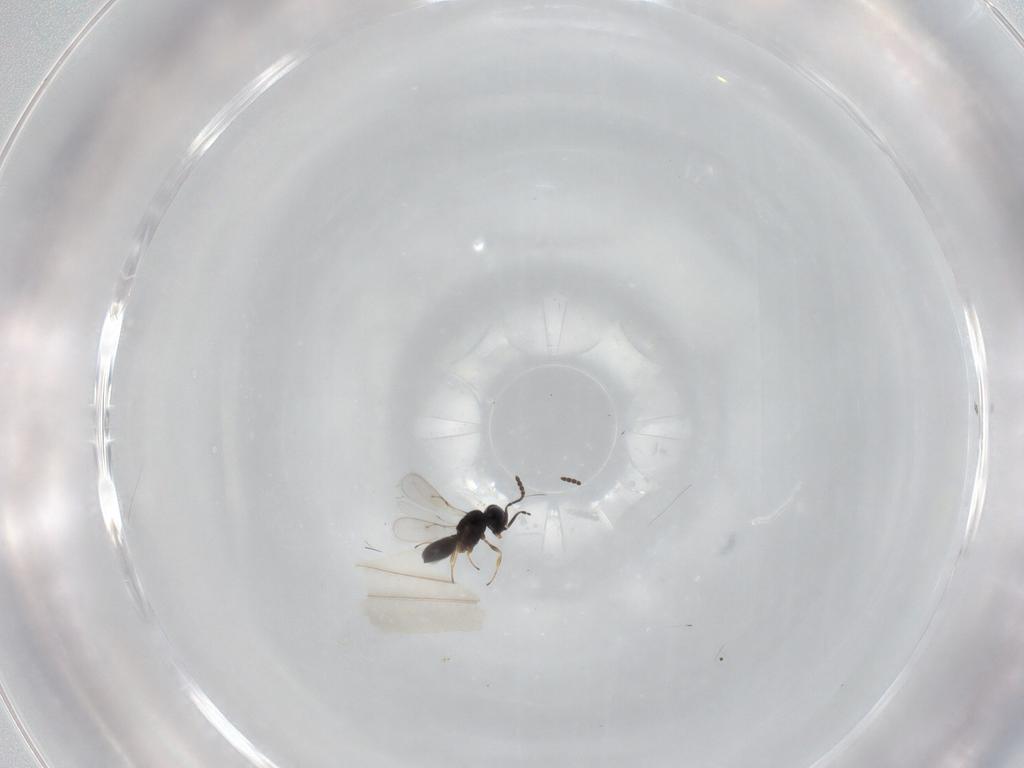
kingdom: Animalia
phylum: Arthropoda
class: Insecta
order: Hymenoptera
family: Scelionidae
